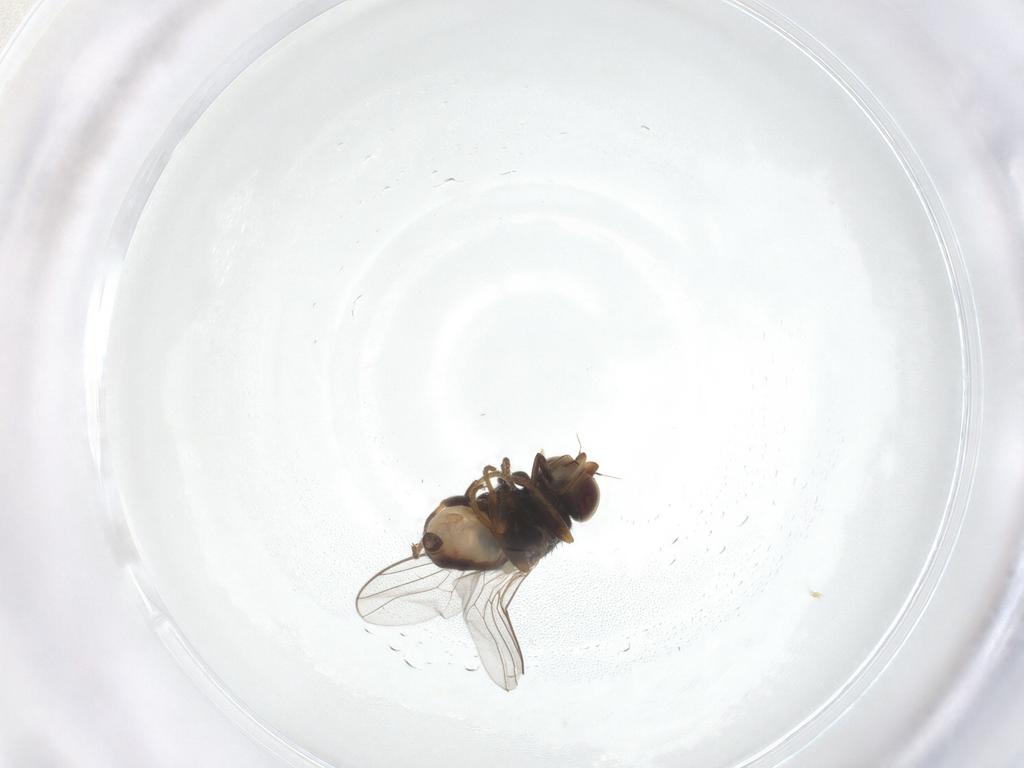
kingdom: Animalia
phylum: Arthropoda
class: Insecta
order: Diptera
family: Chloropidae
